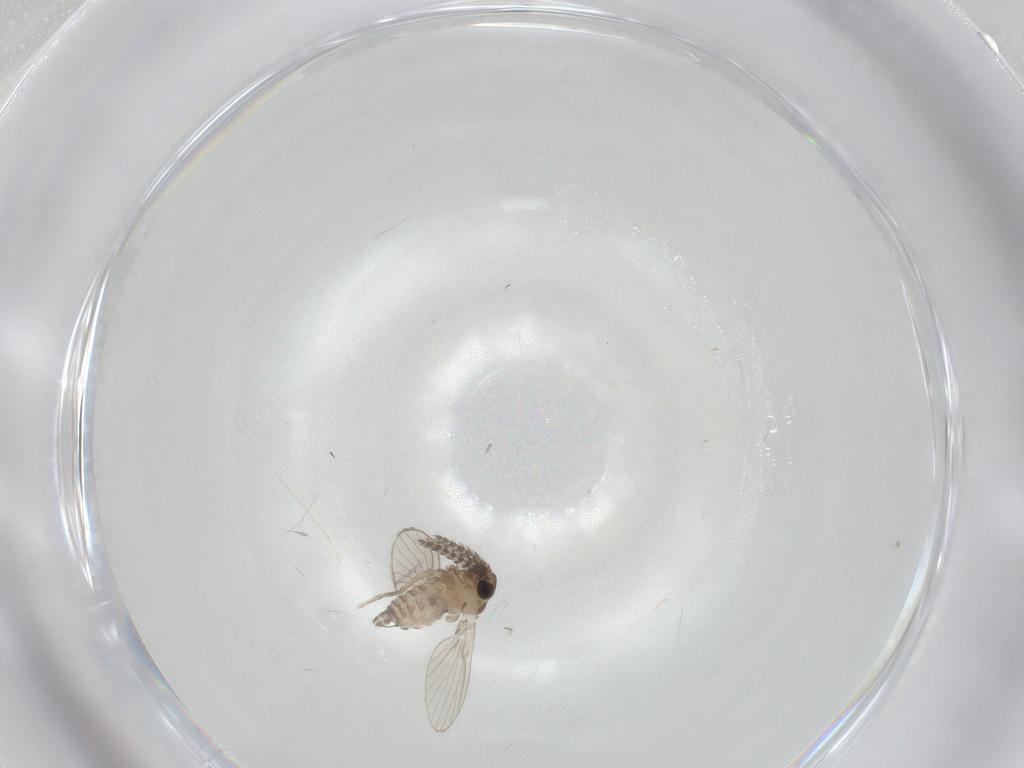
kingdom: Animalia
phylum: Arthropoda
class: Insecta
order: Diptera
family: Cecidomyiidae
